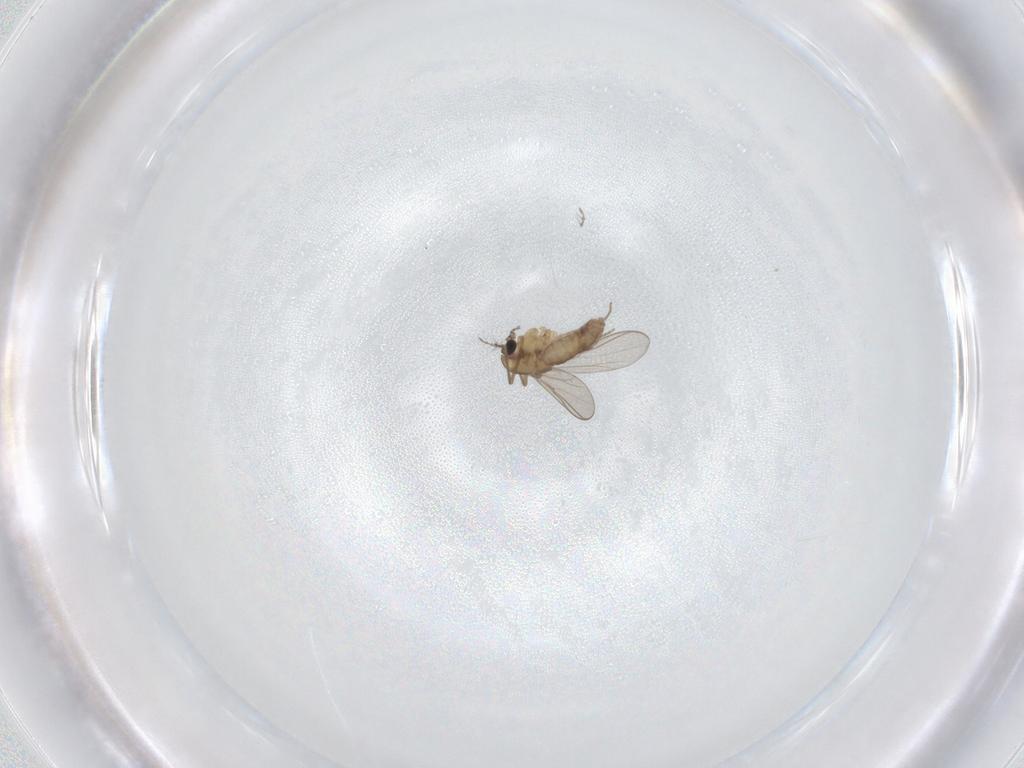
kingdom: Animalia
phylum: Arthropoda
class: Insecta
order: Diptera
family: Chironomidae
